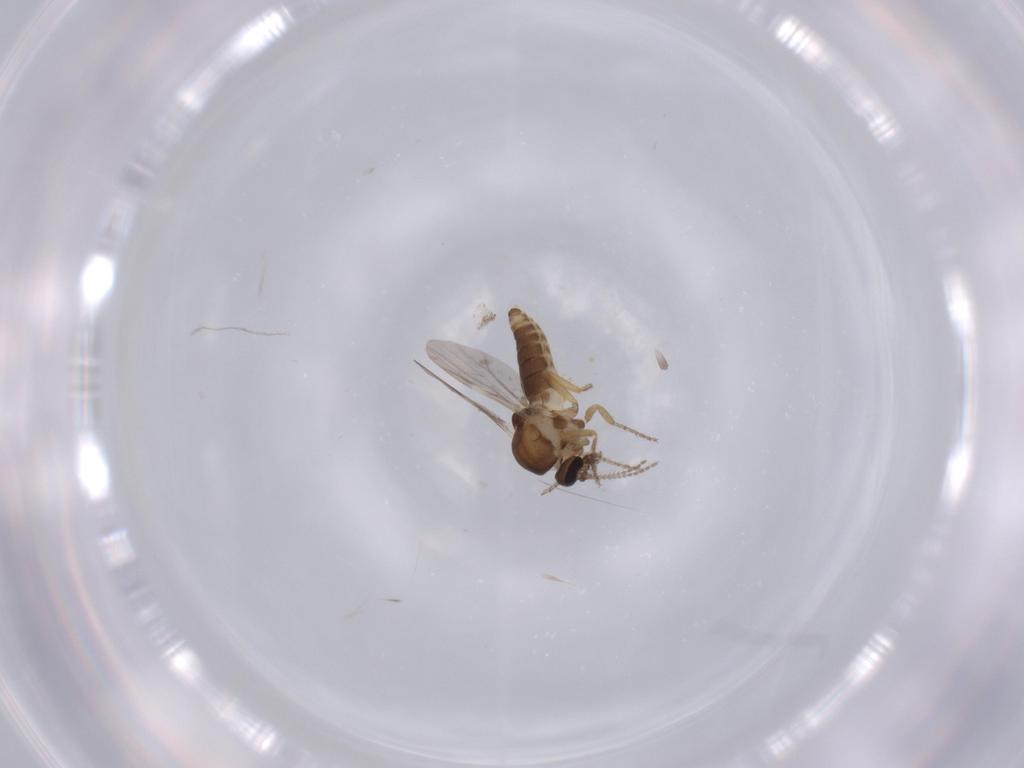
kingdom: Animalia
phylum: Arthropoda
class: Insecta
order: Diptera
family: Ceratopogonidae
